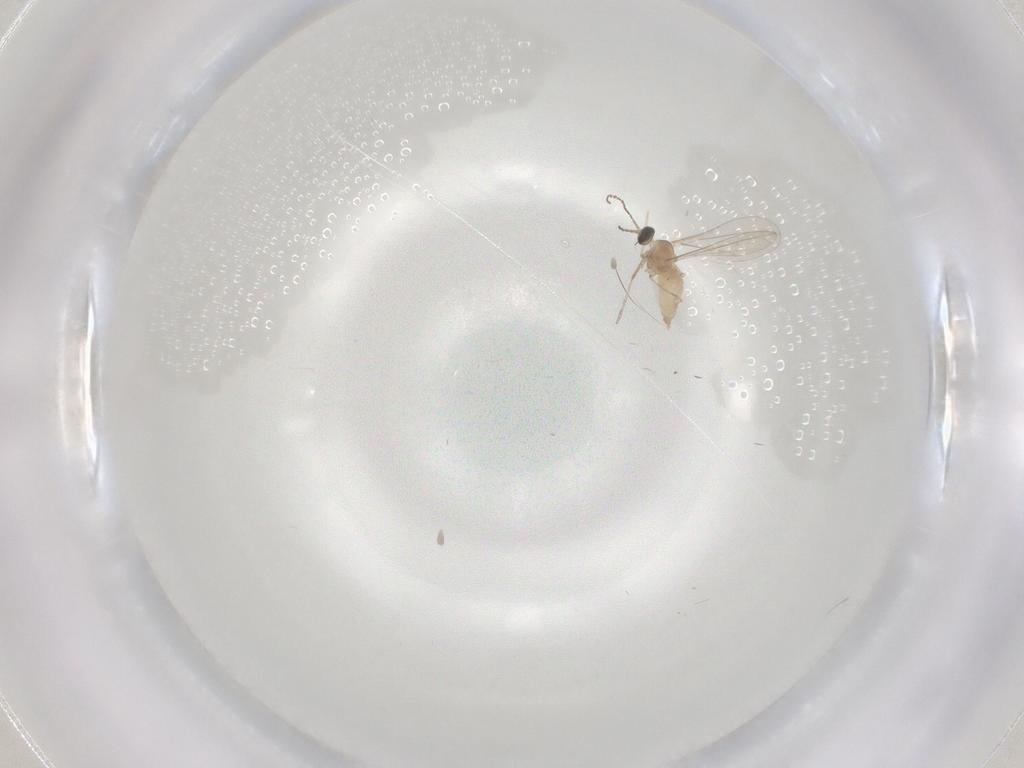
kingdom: Animalia
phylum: Arthropoda
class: Insecta
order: Diptera
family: Cecidomyiidae
